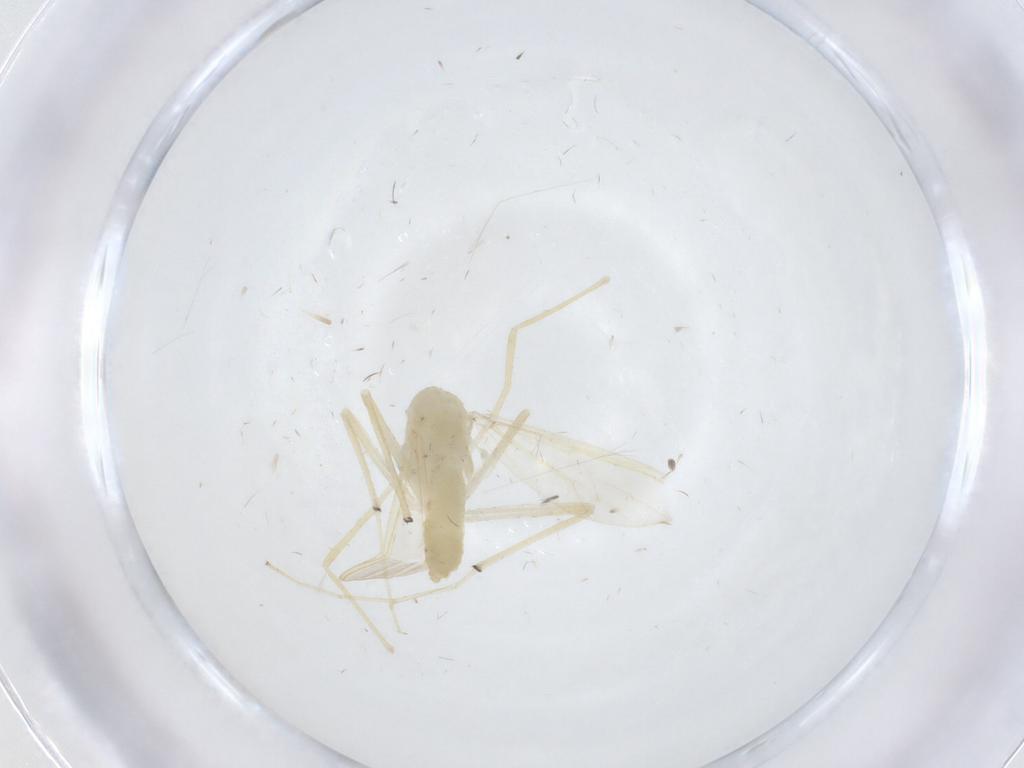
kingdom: Animalia
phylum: Arthropoda
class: Insecta
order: Diptera
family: Chironomidae
